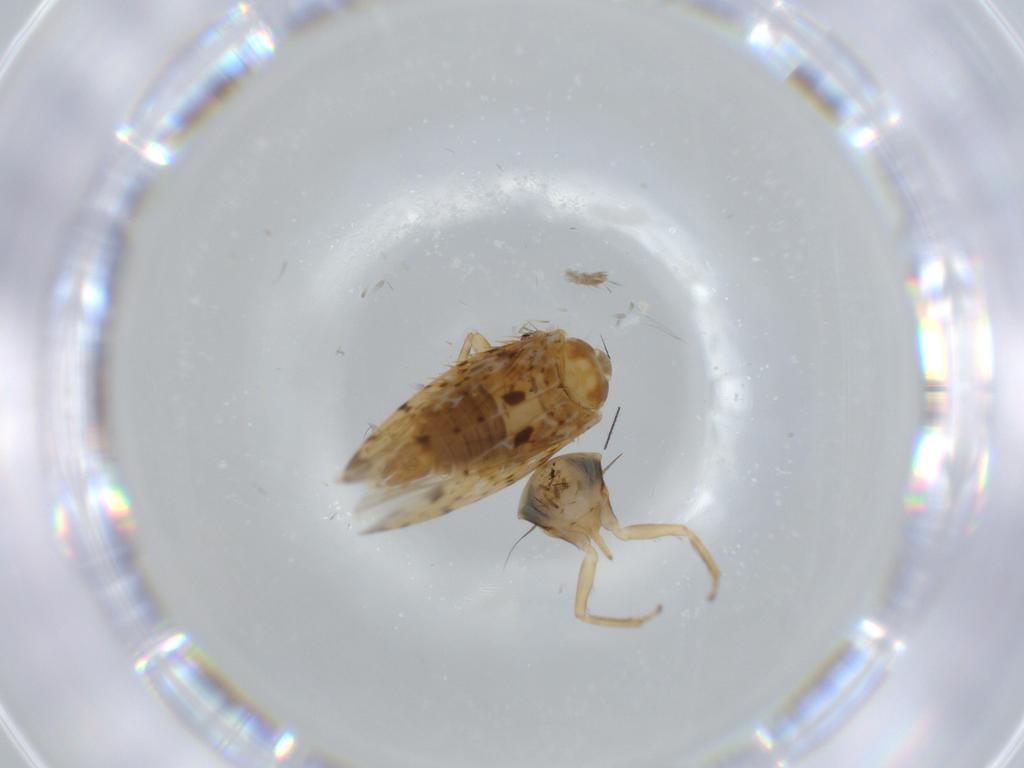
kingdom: Animalia
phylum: Arthropoda
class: Insecta
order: Hemiptera
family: Cicadellidae
